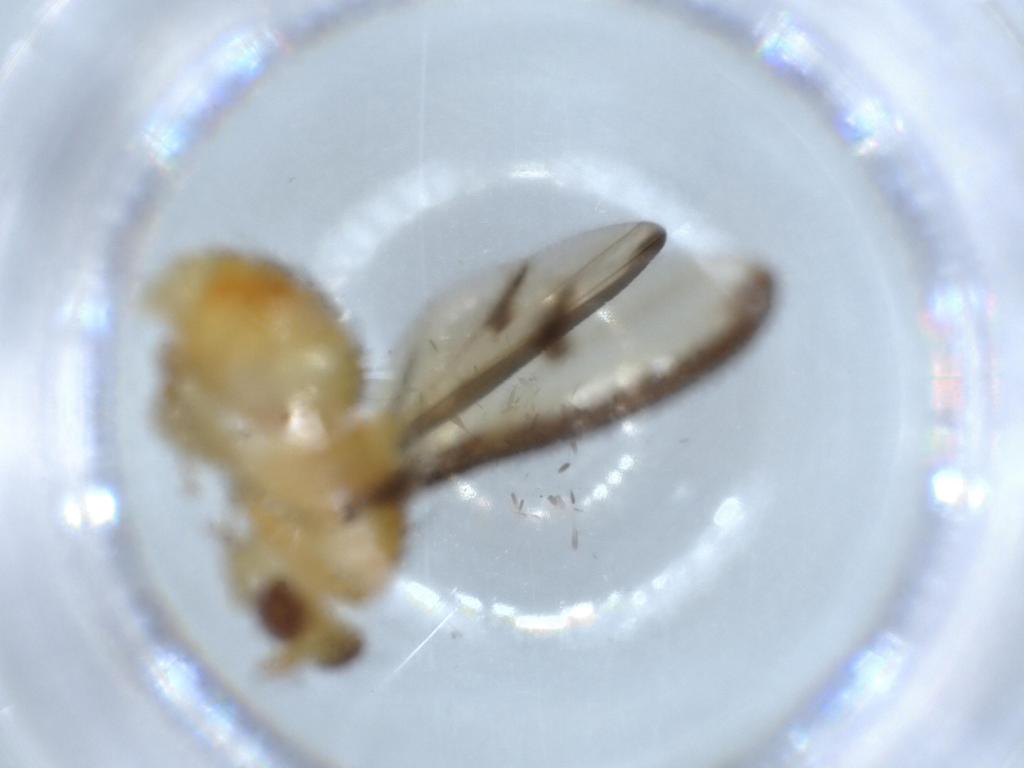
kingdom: Animalia
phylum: Arthropoda
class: Insecta
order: Diptera
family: Lauxaniidae
